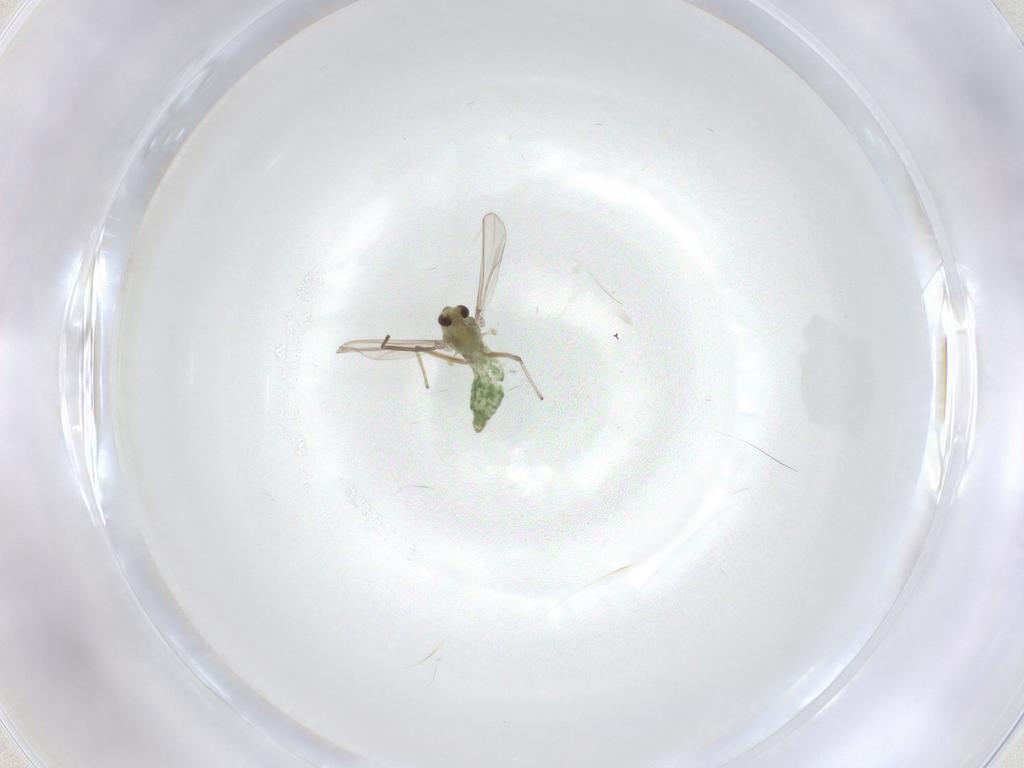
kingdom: Animalia
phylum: Arthropoda
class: Insecta
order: Diptera
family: Chironomidae
